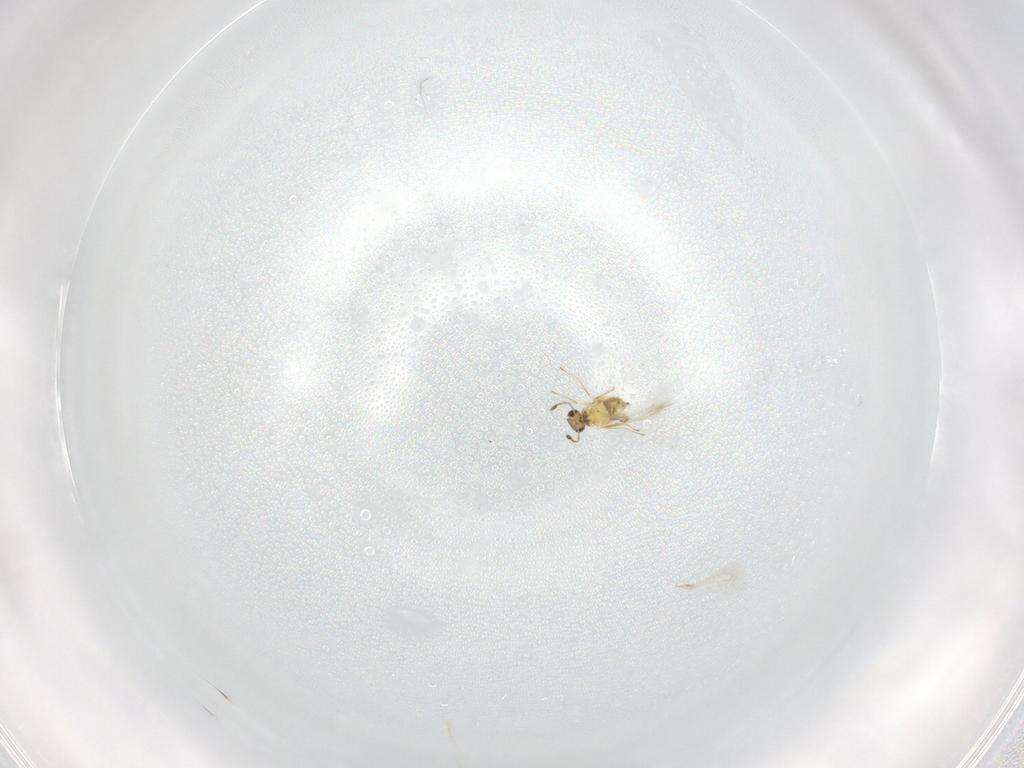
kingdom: Animalia
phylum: Arthropoda
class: Insecta
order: Hymenoptera
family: Mymaridae
